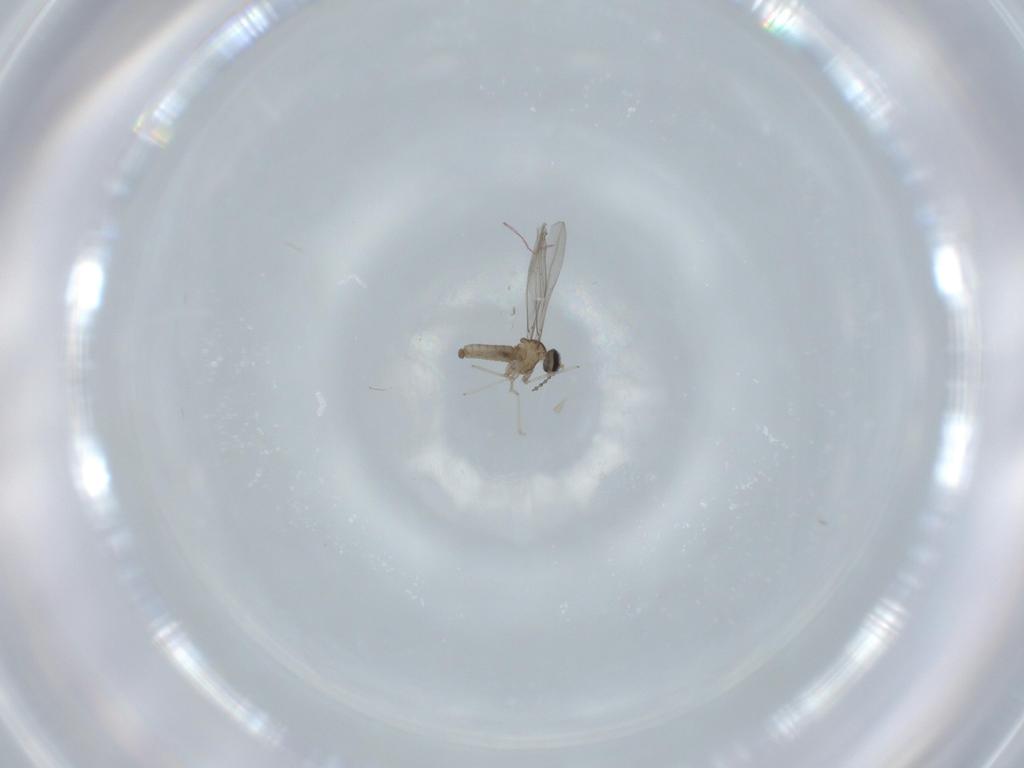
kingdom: Animalia
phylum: Arthropoda
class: Insecta
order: Diptera
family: Cecidomyiidae
